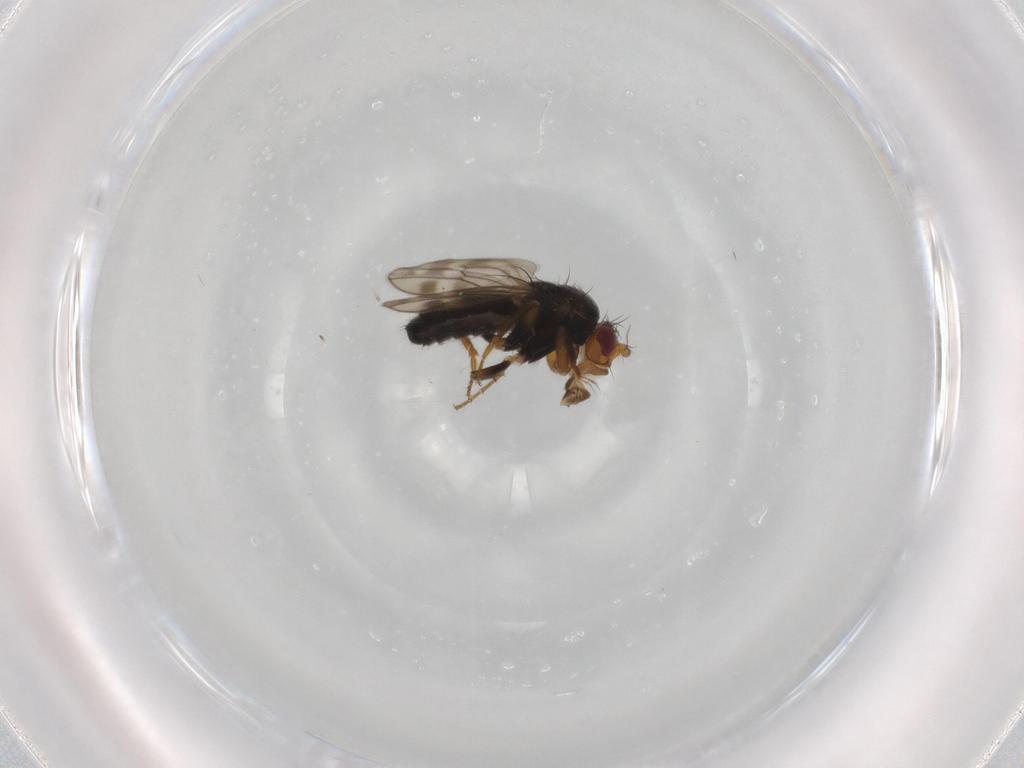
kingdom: Animalia
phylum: Arthropoda
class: Insecta
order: Diptera
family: Sphaeroceridae
